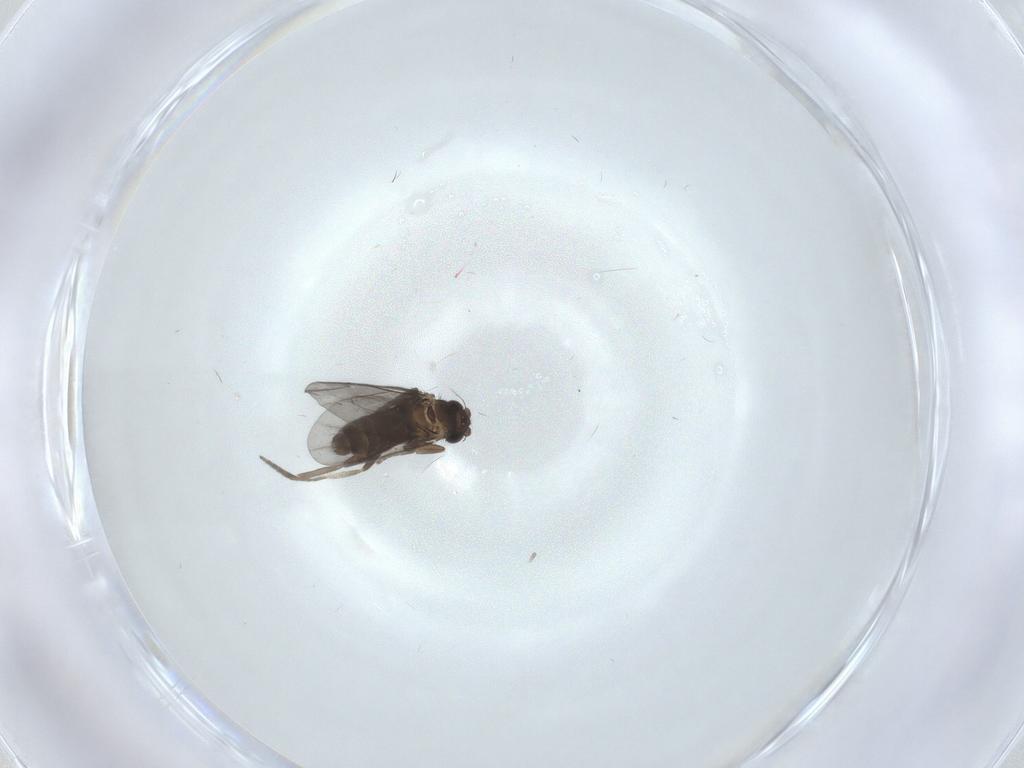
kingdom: Animalia
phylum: Arthropoda
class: Insecta
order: Diptera
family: Phoridae
